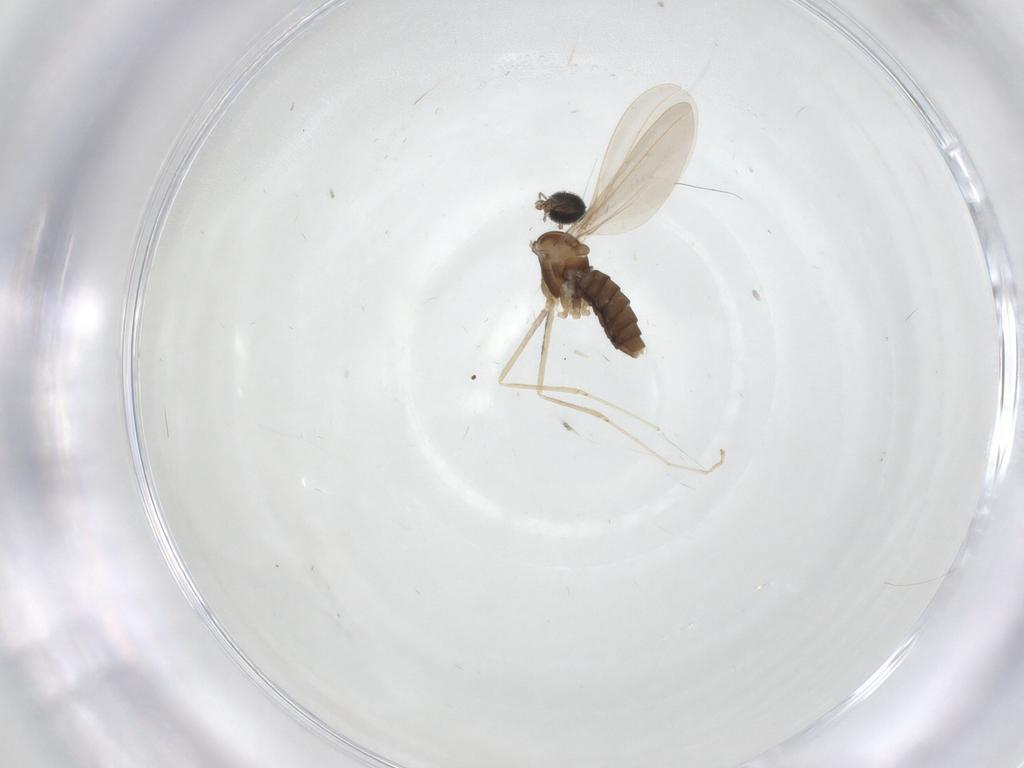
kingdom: Animalia
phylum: Arthropoda
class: Insecta
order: Diptera
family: Cecidomyiidae
